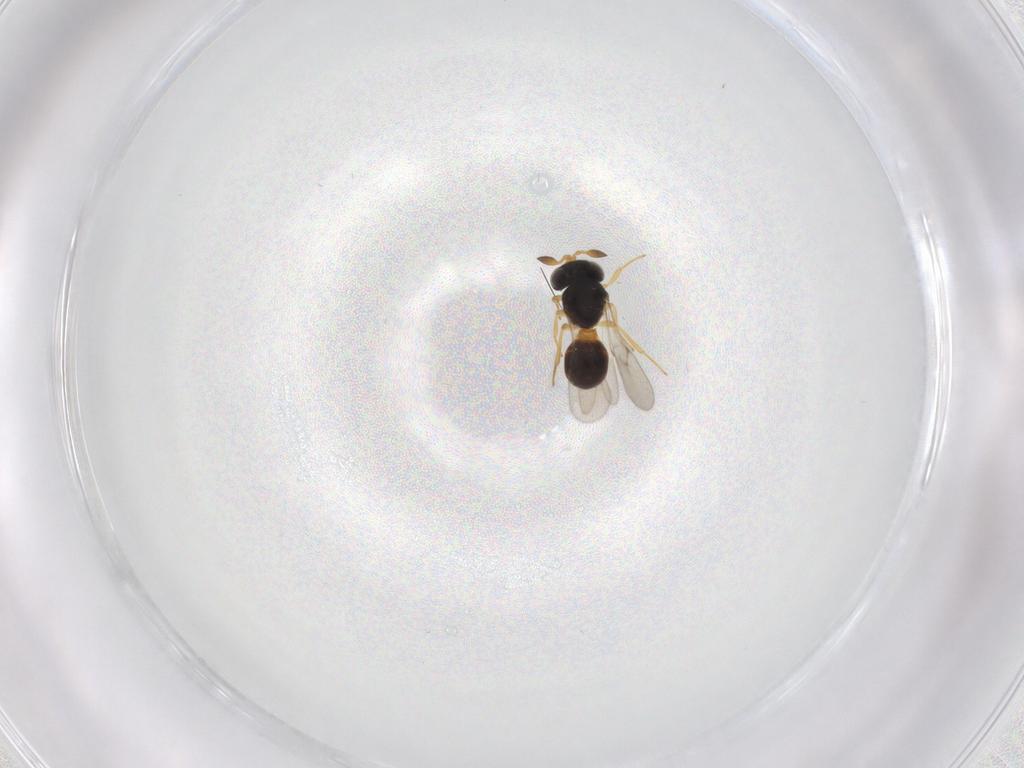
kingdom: Animalia
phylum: Arthropoda
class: Insecta
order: Hymenoptera
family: Scelionidae
